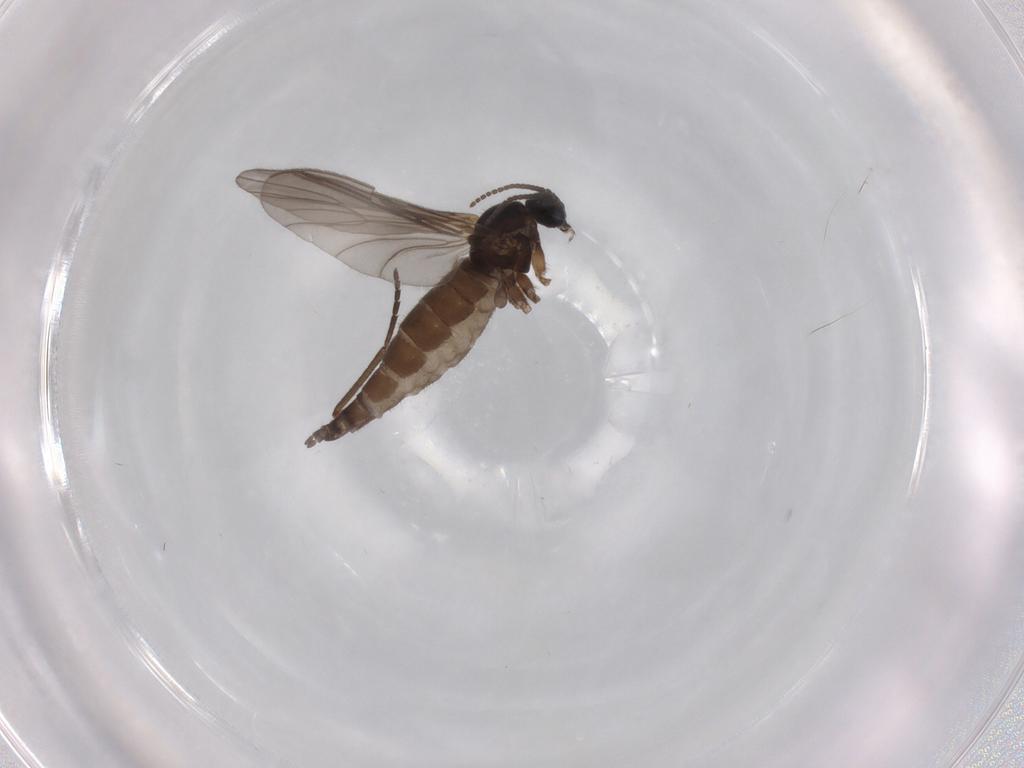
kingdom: Animalia
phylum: Arthropoda
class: Insecta
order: Diptera
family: Sciaridae
